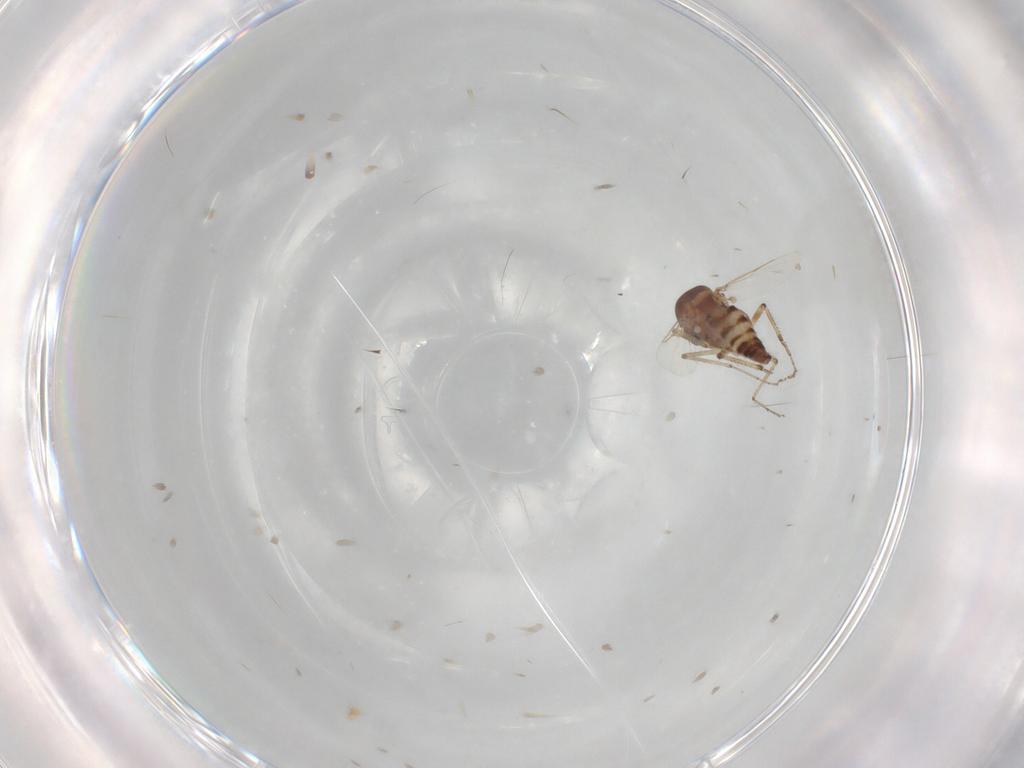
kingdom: Animalia
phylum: Arthropoda
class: Insecta
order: Diptera
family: Ceratopogonidae
